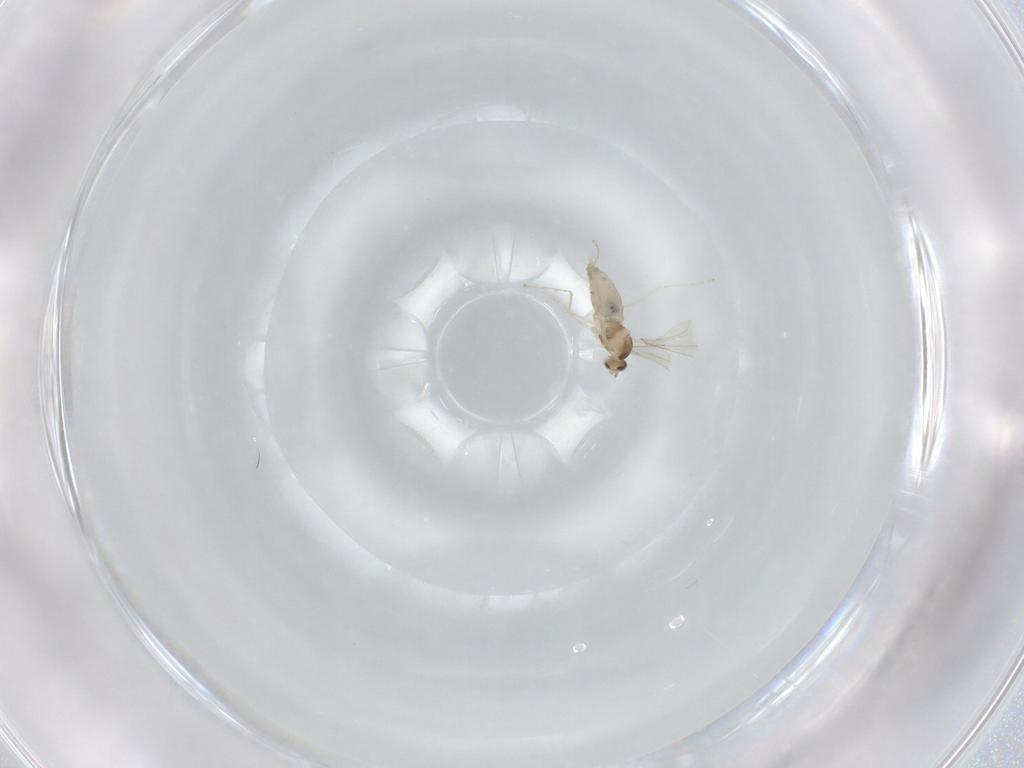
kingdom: Animalia
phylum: Arthropoda
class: Insecta
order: Diptera
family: Cecidomyiidae
